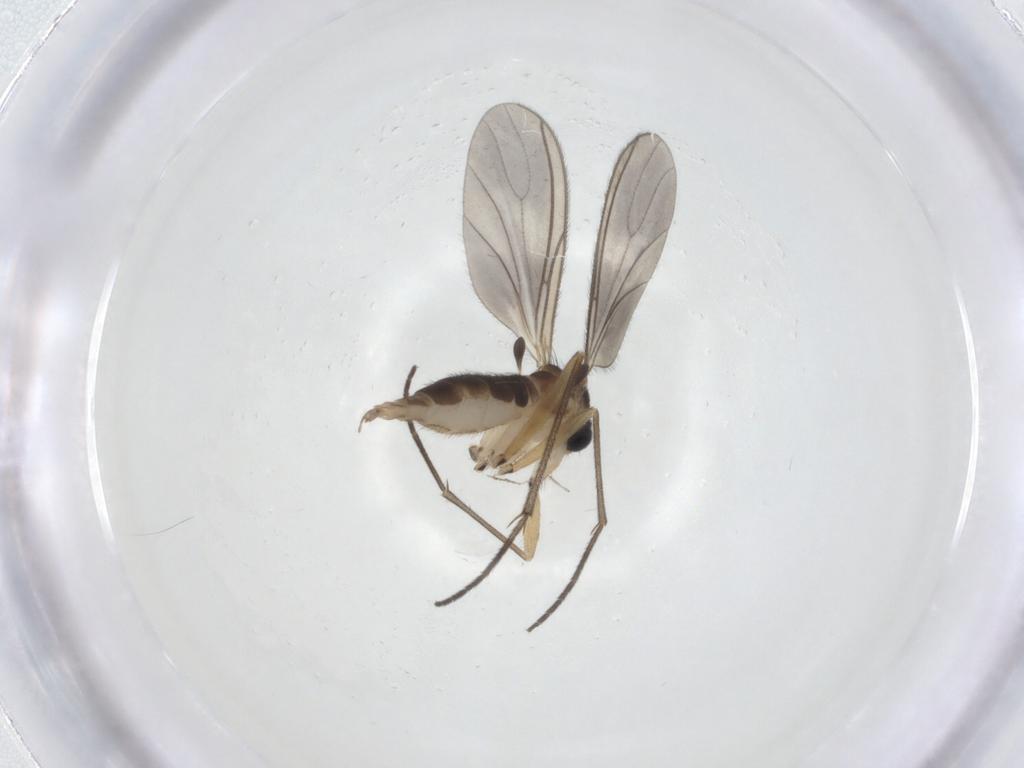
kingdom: Animalia
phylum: Arthropoda
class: Insecta
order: Diptera
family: Sciaridae
